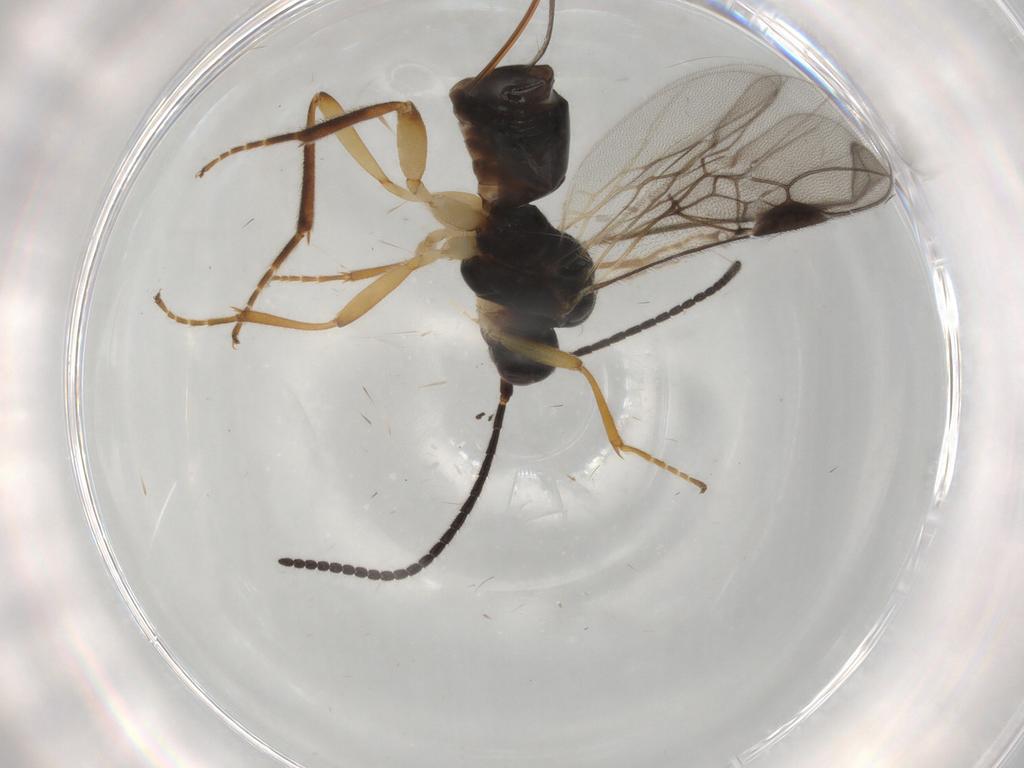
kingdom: Animalia
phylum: Arthropoda
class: Insecta
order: Hymenoptera
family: Braconidae
